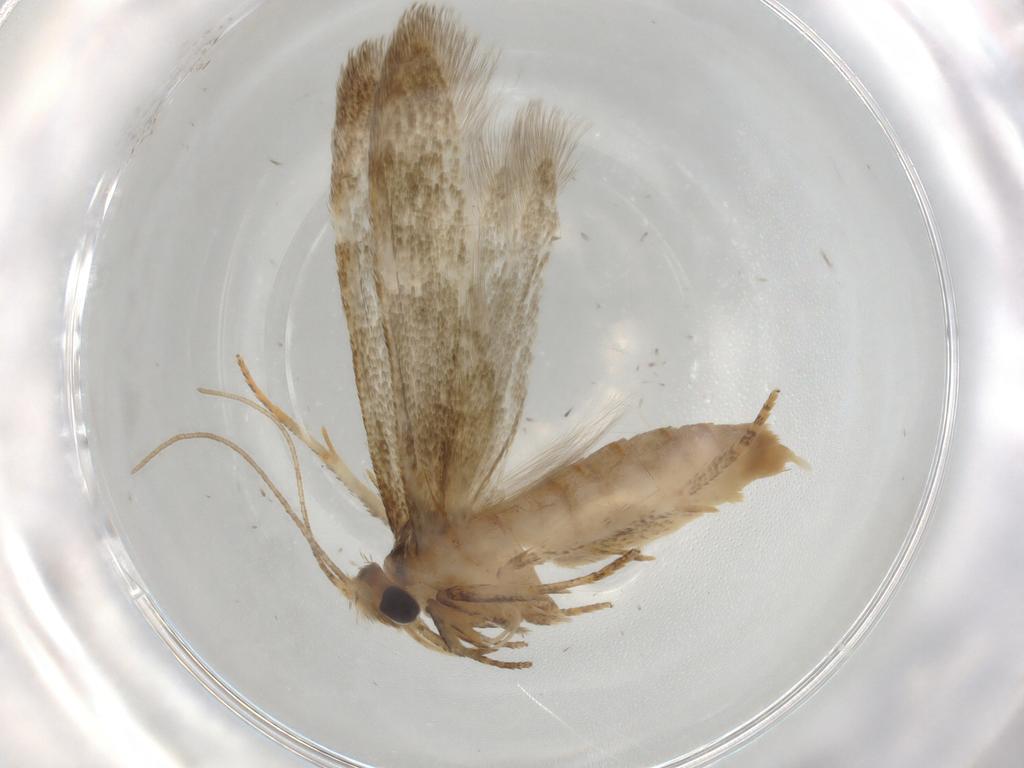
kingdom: Animalia
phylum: Arthropoda
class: Insecta
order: Lepidoptera
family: Blastobasidae
